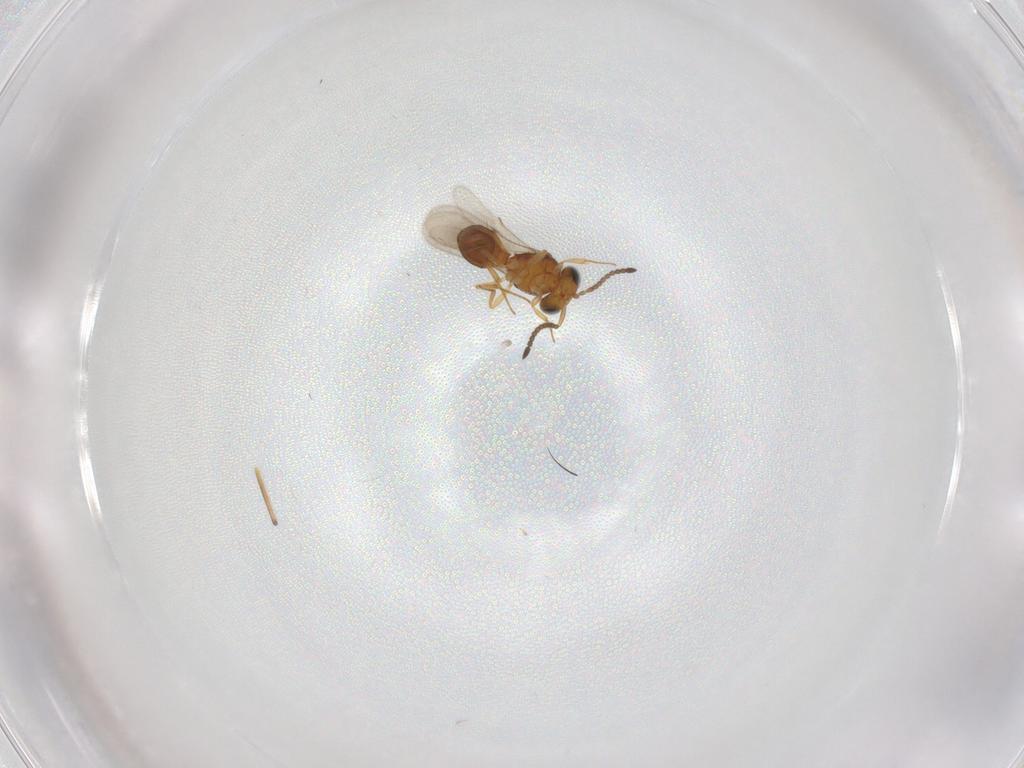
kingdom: Animalia
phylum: Arthropoda
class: Insecta
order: Hymenoptera
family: Scelionidae
